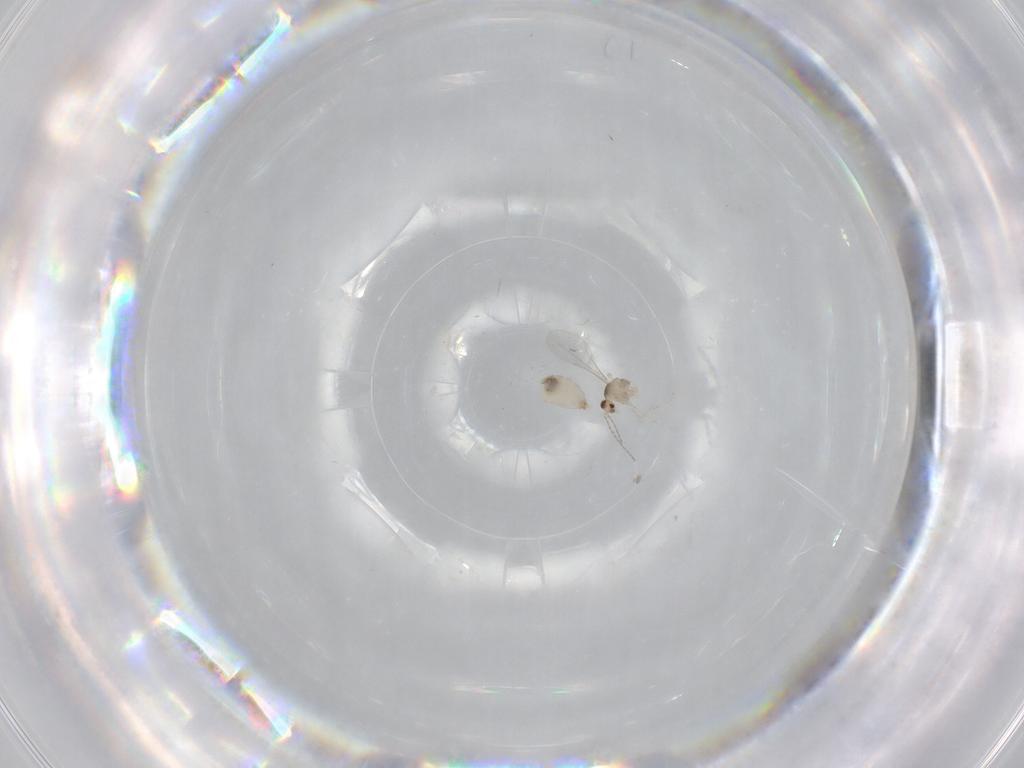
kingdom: Animalia
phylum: Arthropoda
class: Insecta
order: Diptera
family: Cecidomyiidae
